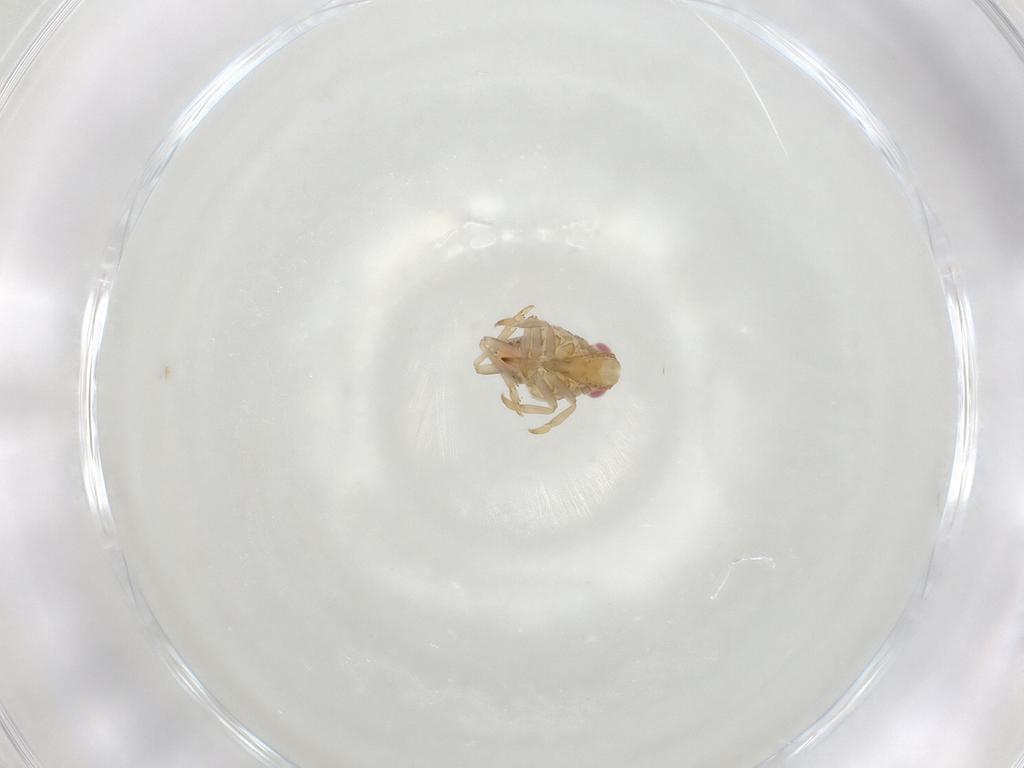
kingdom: Animalia
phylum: Arthropoda
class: Insecta
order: Hemiptera
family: Tropiduchidae
